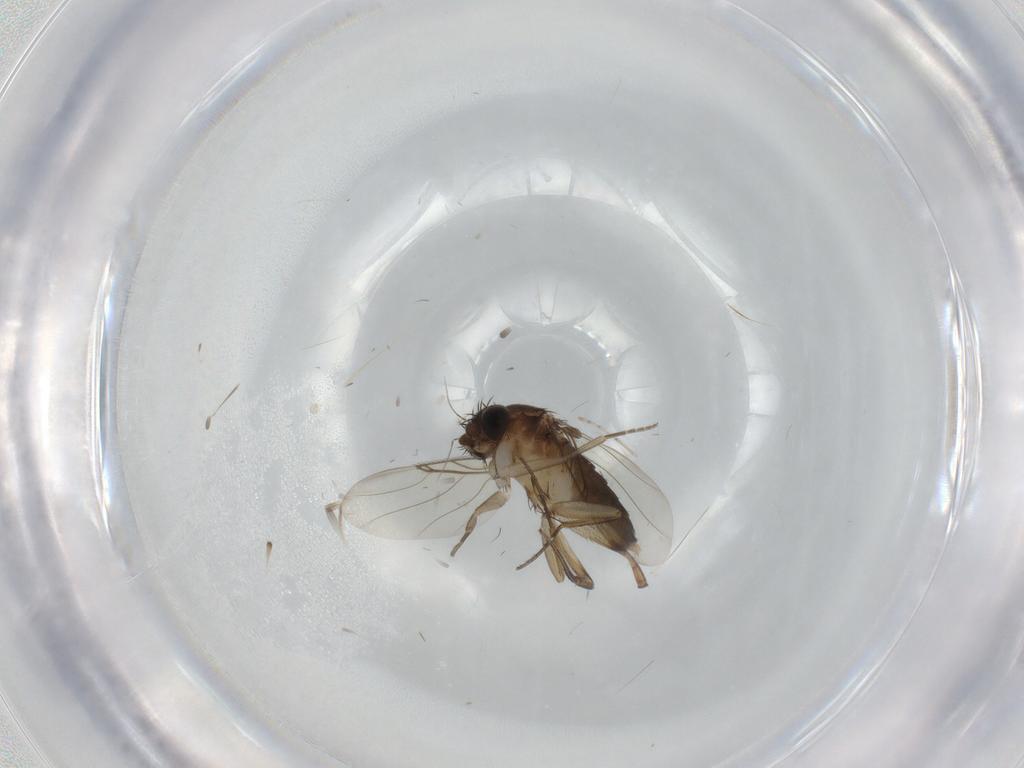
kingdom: Animalia
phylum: Arthropoda
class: Insecta
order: Diptera
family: Phoridae
